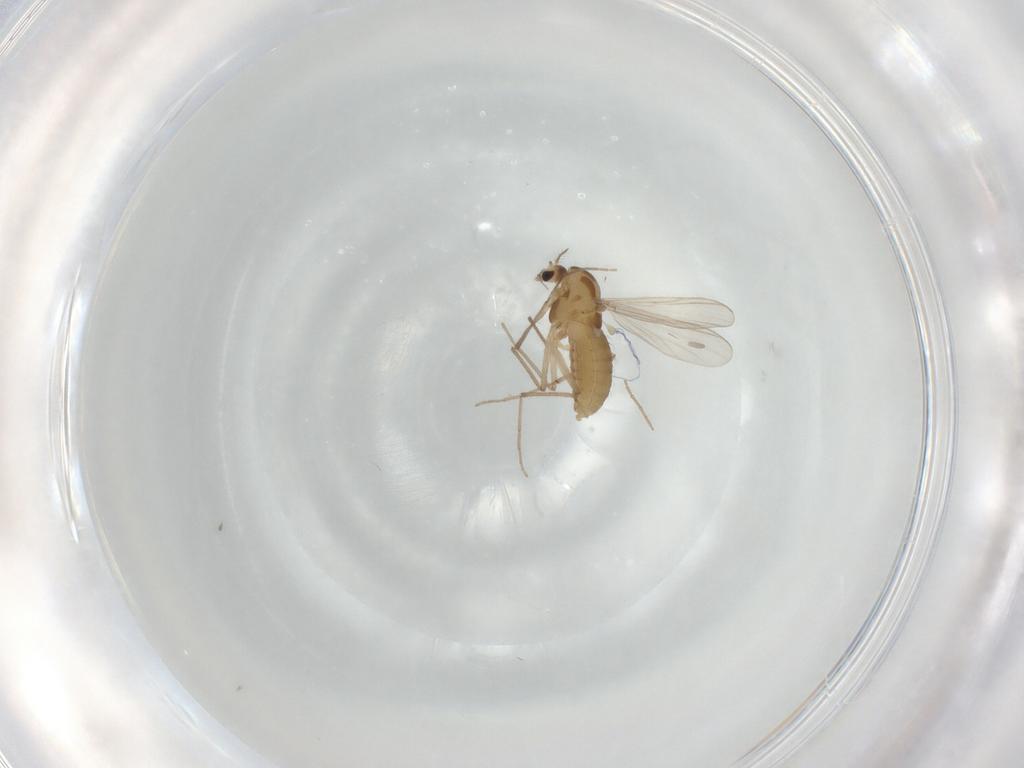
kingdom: Animalia
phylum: Arthropoda
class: Insecta
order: Diptera
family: Chironomidae
